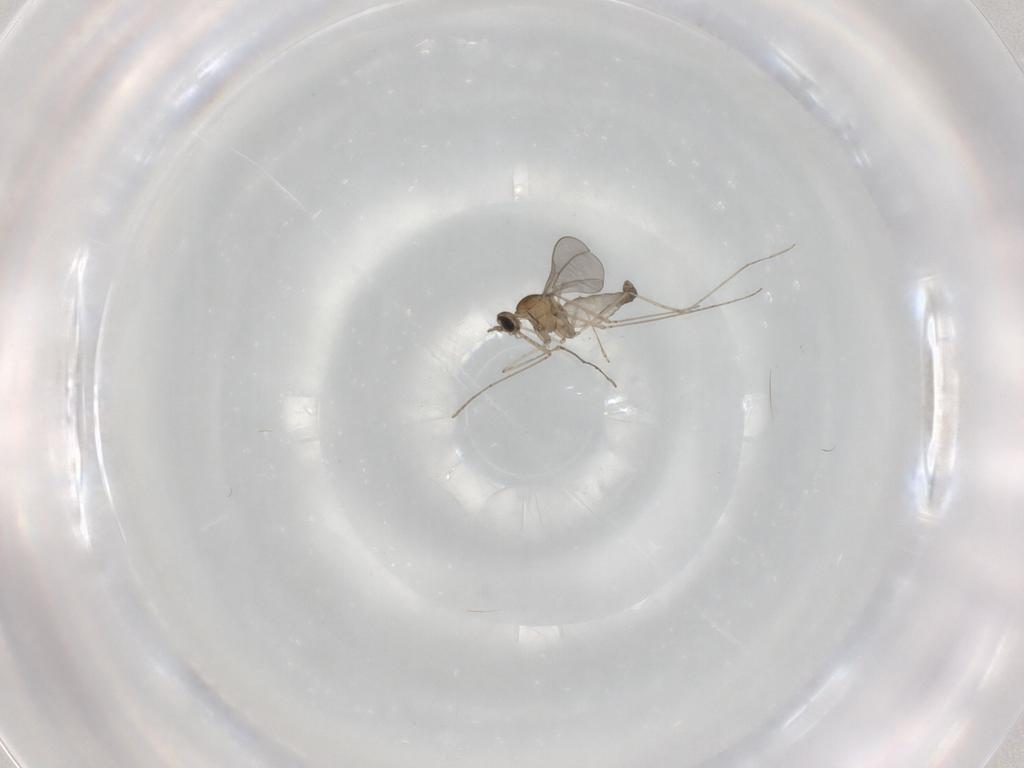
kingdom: Animalia
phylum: Arthropoda
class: Insecta
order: Diptera
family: Cecidomyiidae
